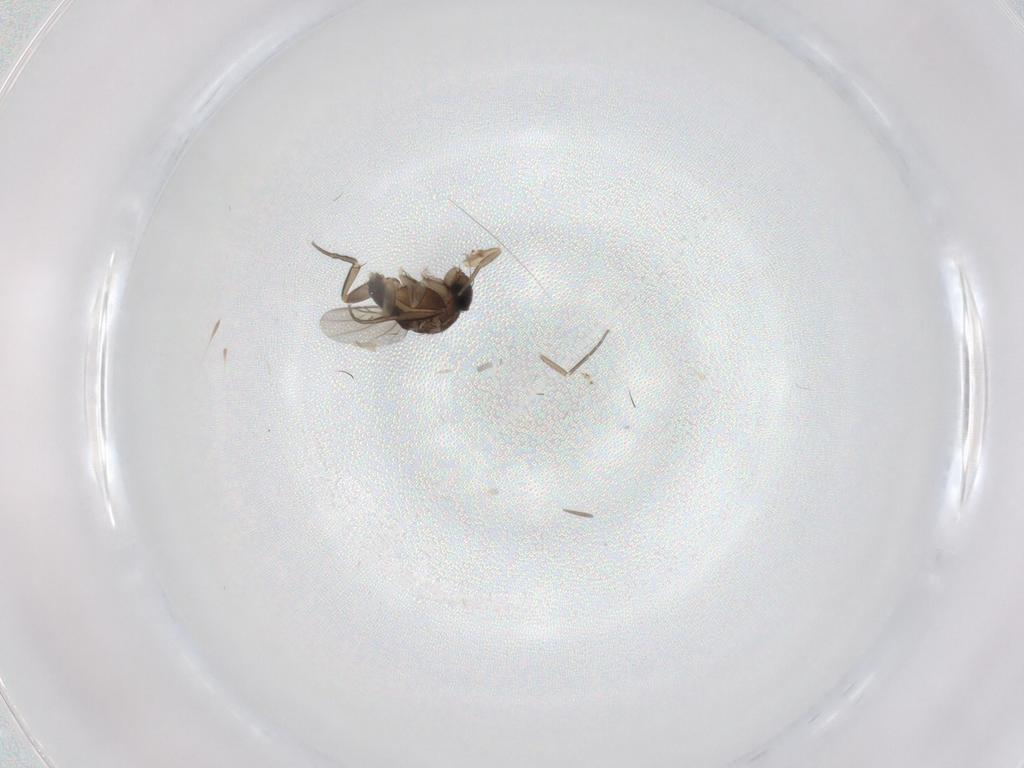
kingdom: Animalia
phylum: Arthropoda
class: Insecta
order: Diptera
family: Phoridae
